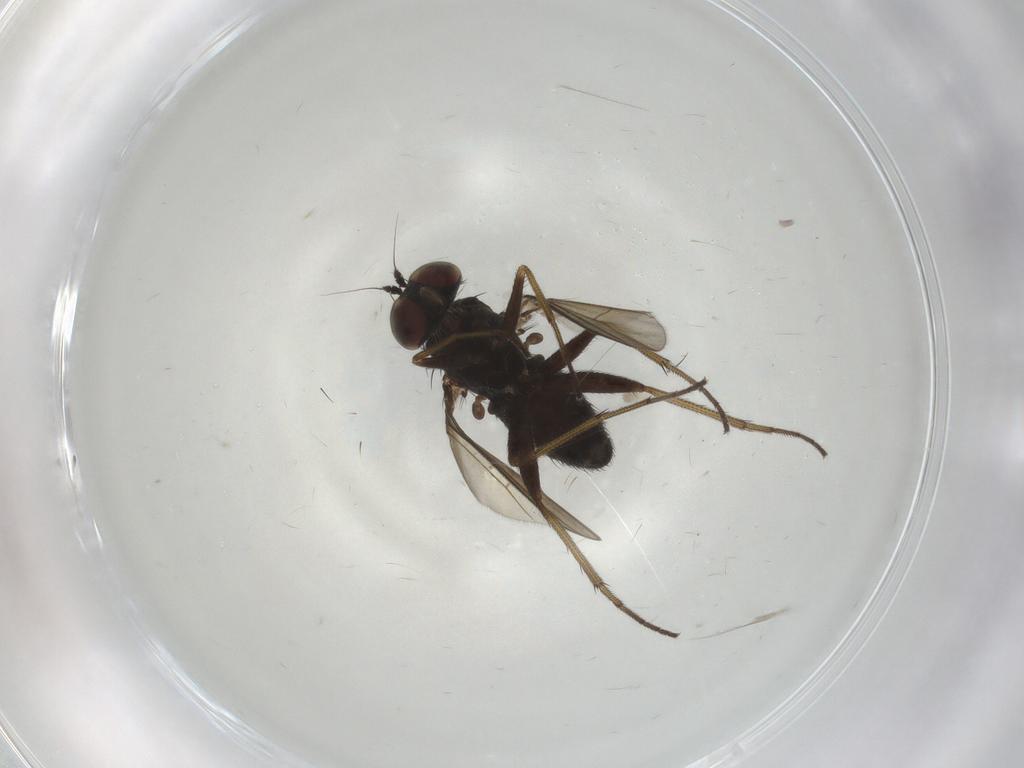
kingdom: Animalia
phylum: Arthropoda
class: Insecta
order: Diptera
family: Dolichopodidae
